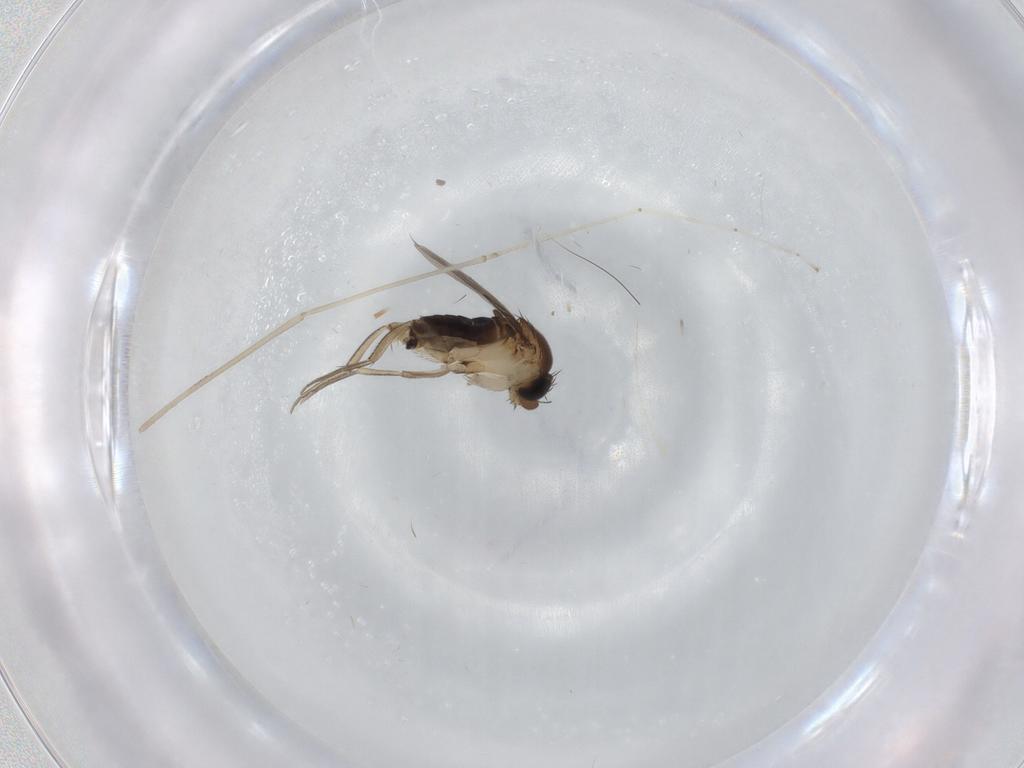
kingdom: Animalia
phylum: Arthropoda
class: Insecta
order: Diptera
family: Phoridae
